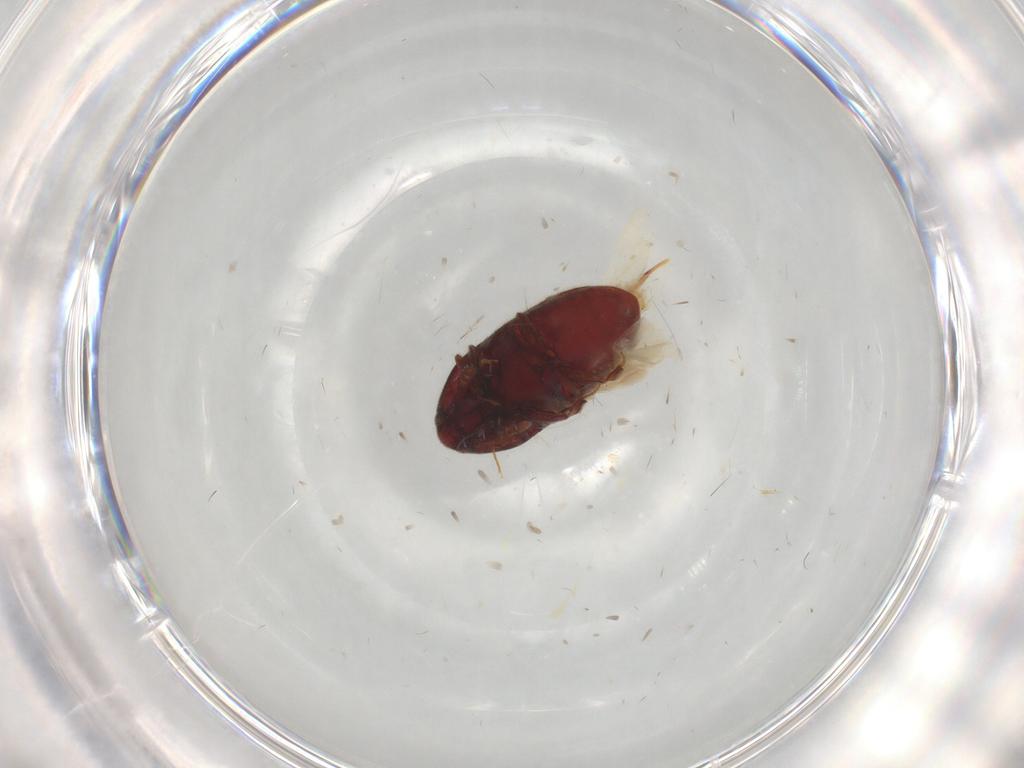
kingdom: Animalia
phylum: Arthropoda
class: Insecta
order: Coleoptera
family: Throscidae
